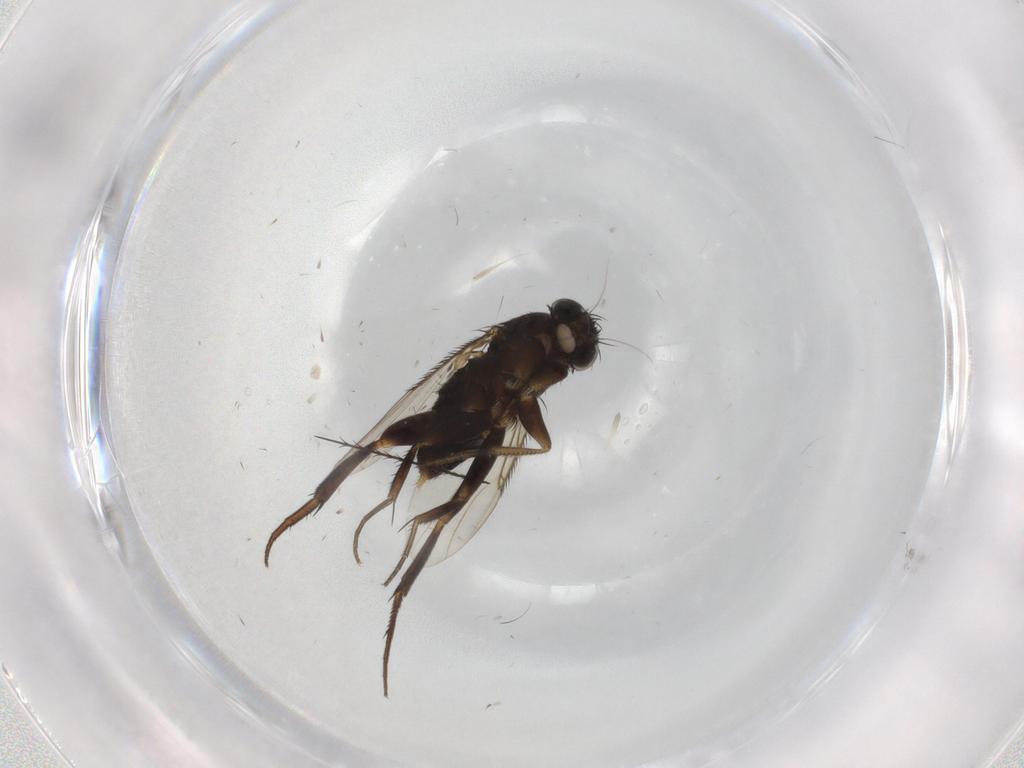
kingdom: Animalia
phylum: Arthropoda
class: Insecta
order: Diptera
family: Phoridae
